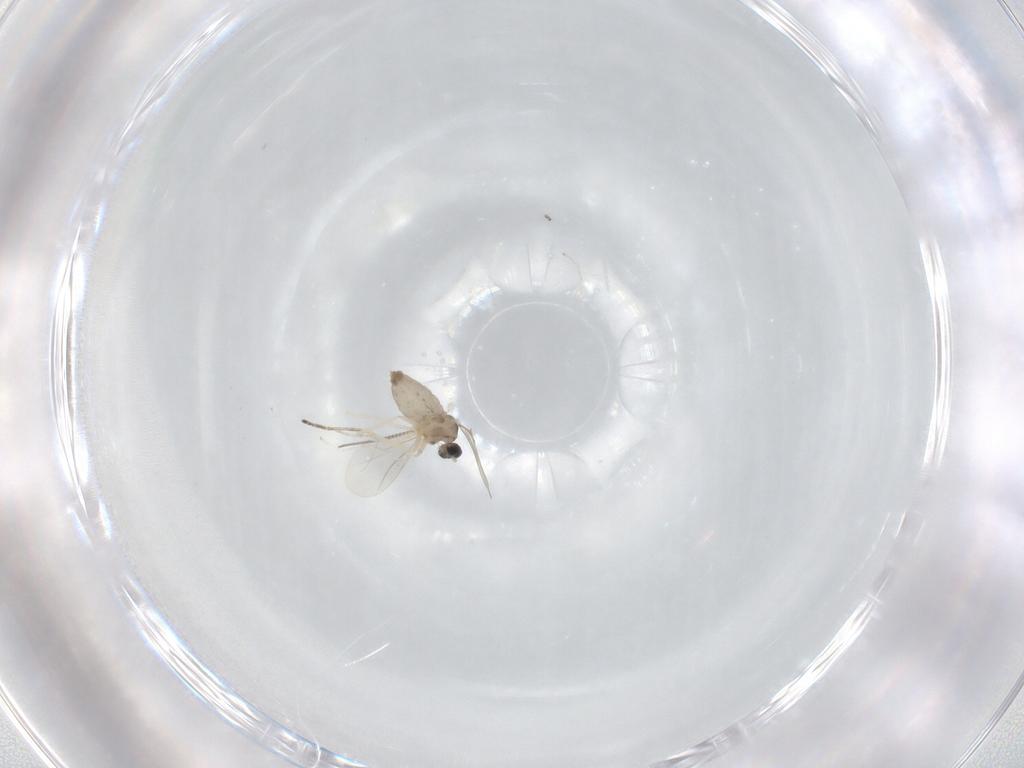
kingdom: Animalia
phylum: Arthropoda
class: Insecta
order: Diptera
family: Cecidomyiidae
